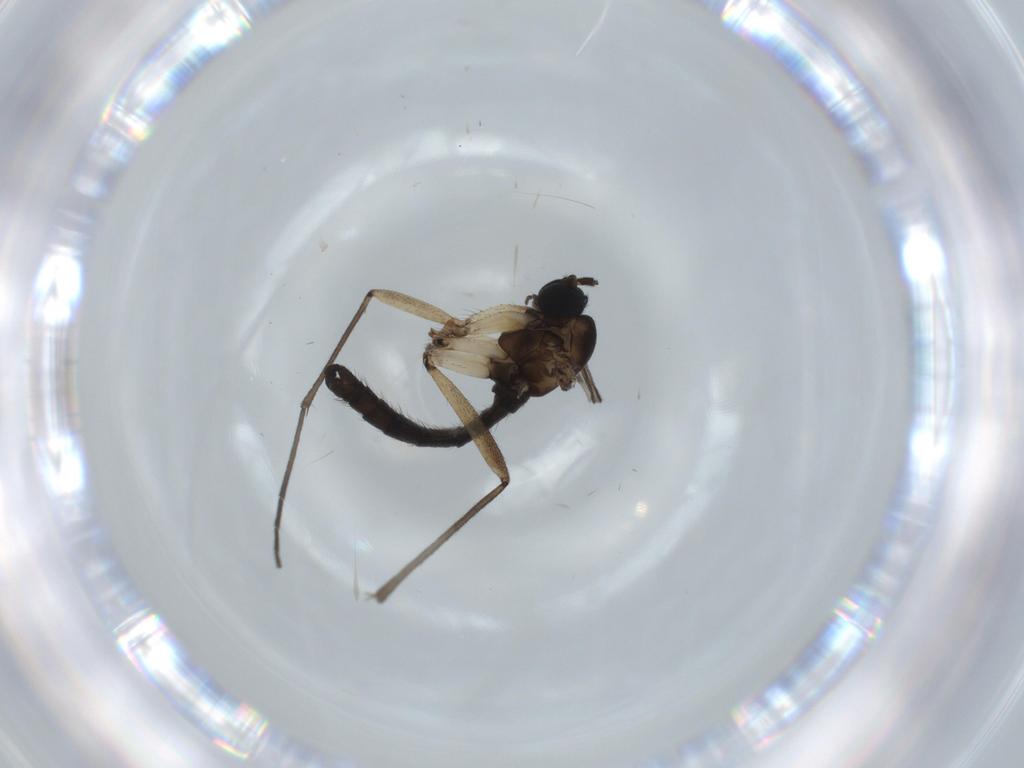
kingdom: Animalia
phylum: Arthropoda
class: Insecta
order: Diptera
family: Sciaridae
